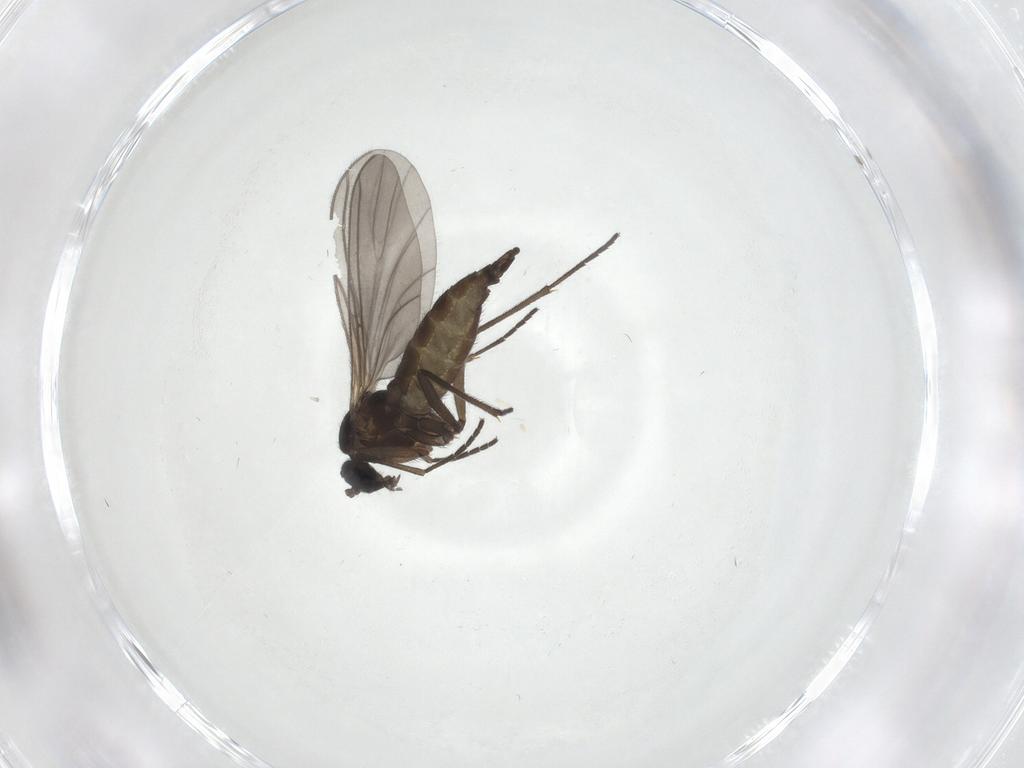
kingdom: Animalia
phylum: Arthropoda
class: Insecta
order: Diptera
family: Sciaridae
